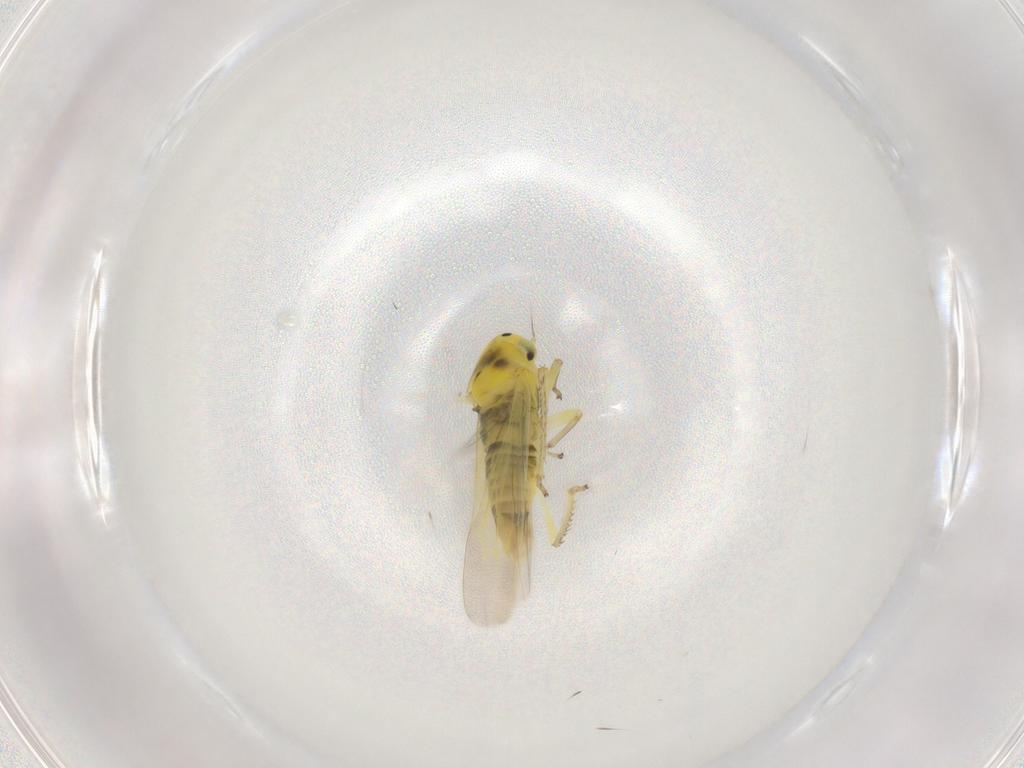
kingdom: Animalia
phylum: Arthropoda
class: Insecta
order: Hemiptera
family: Cicadellidae
